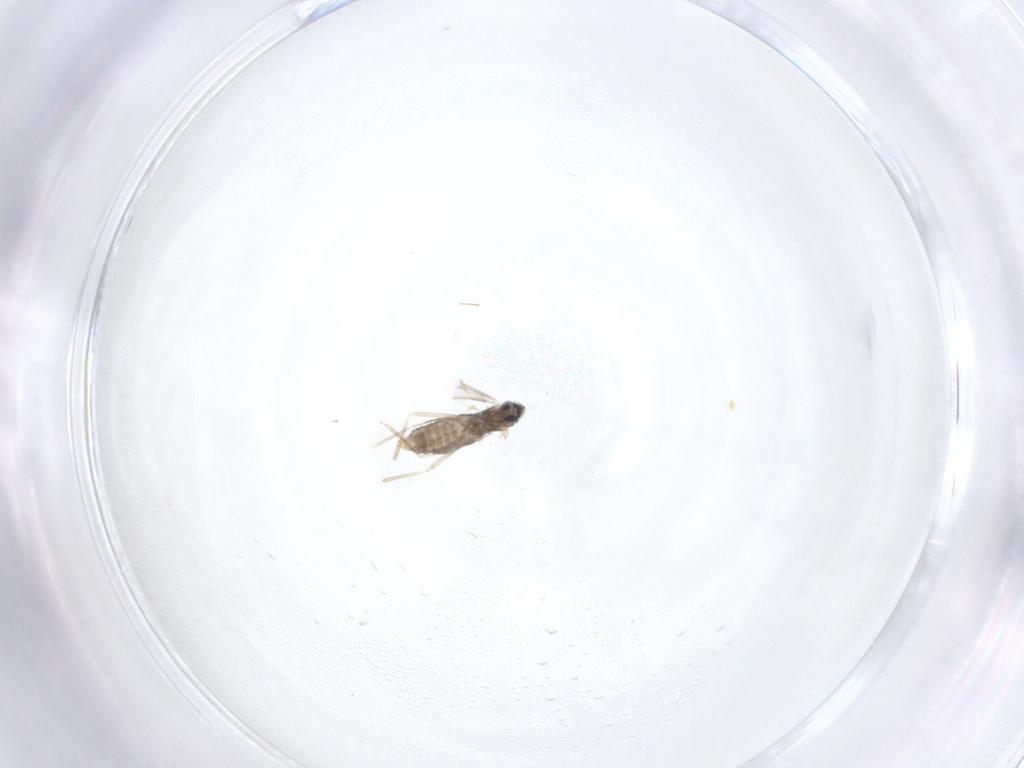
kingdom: Animalia
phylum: Arthropoda
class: Insecta
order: Diptera
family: Cecidomyiidae
